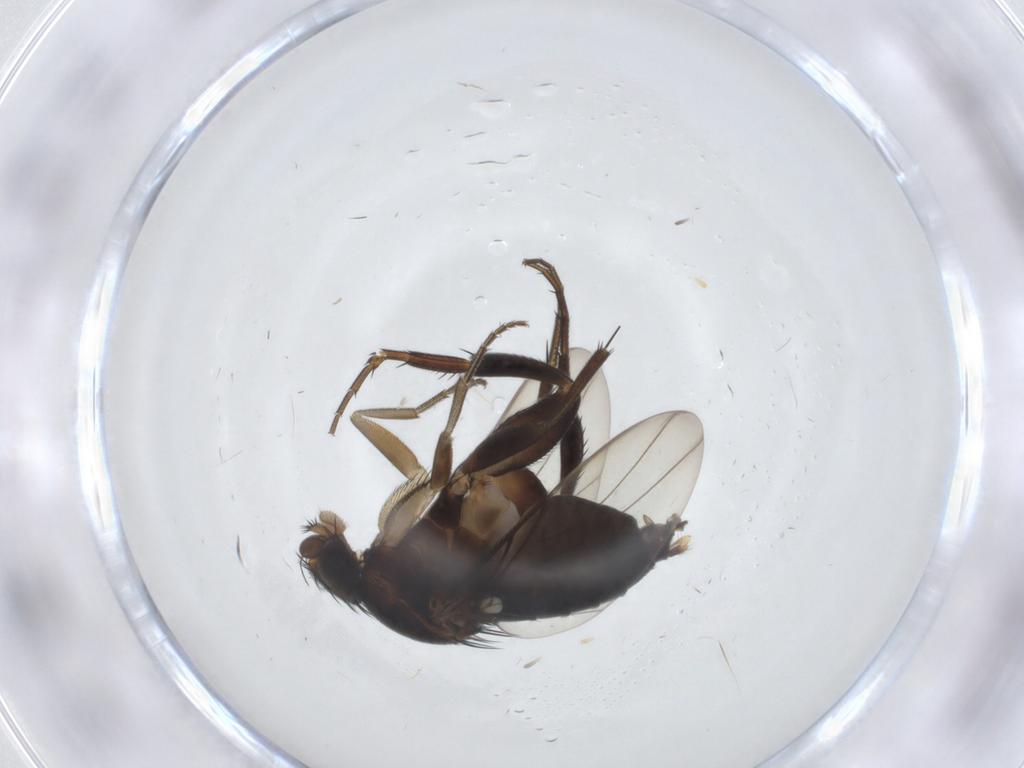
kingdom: Animalia
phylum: Arthropoda
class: Insecta
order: Diptera
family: Phoridae
